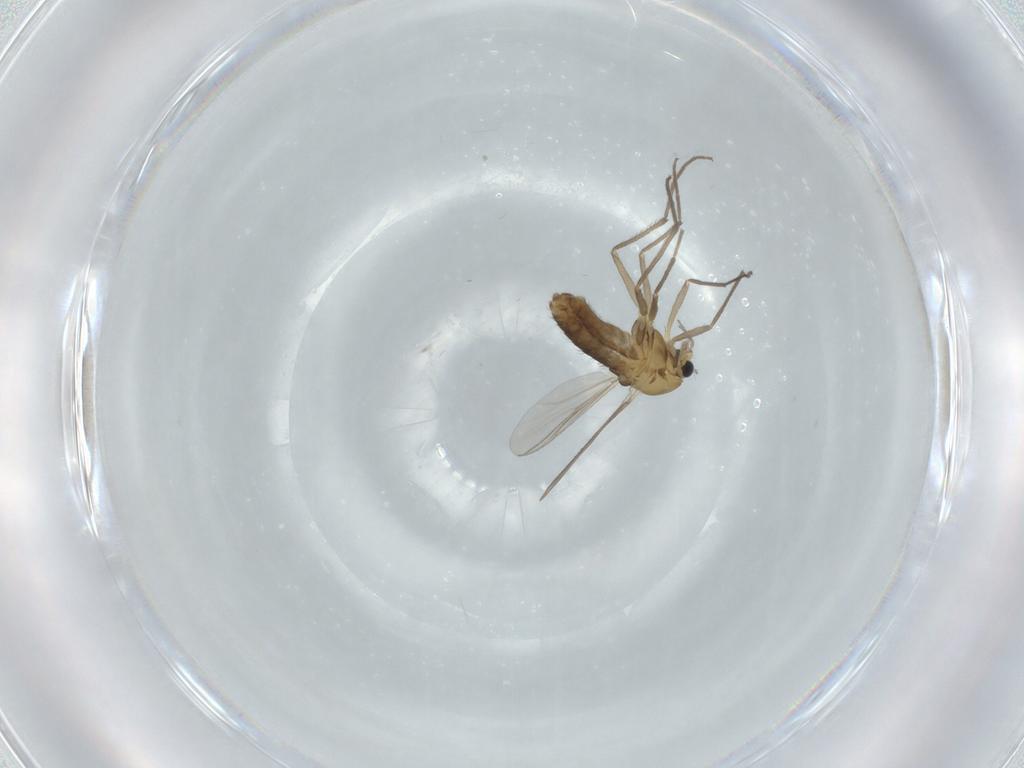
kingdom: Animalia
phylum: Arthropoda
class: Insecta
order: Diptera
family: Chironomidae
